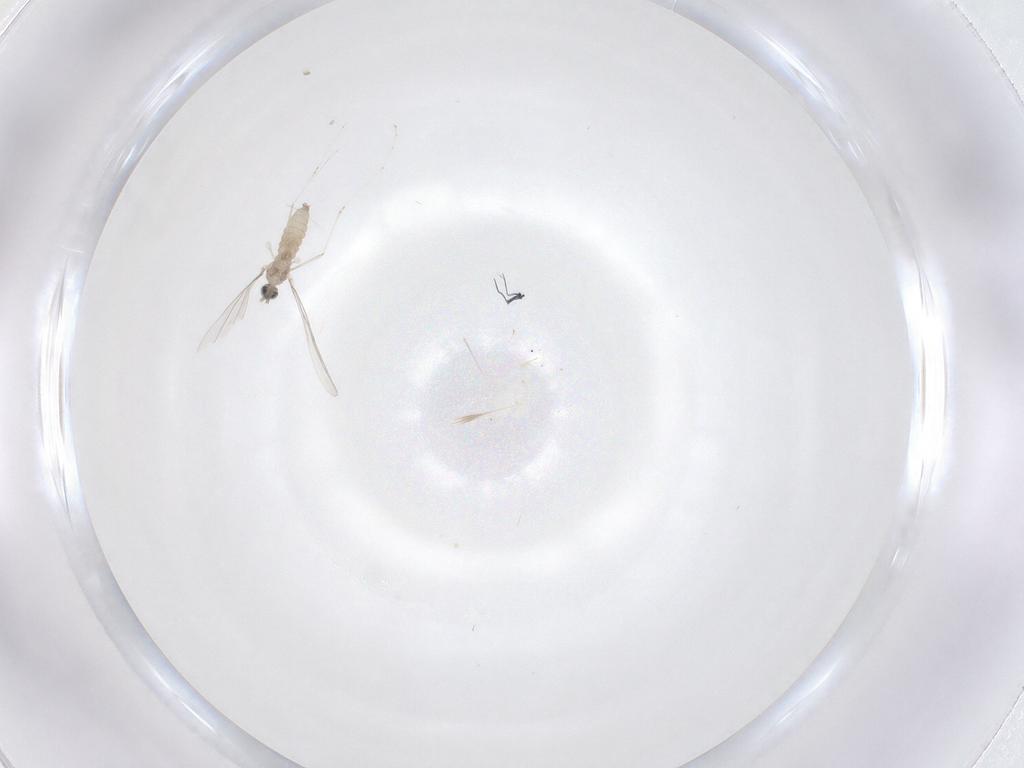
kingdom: Animalia
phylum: Arthropoda
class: Insecta
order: Diptera
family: Cecidomyiidae
